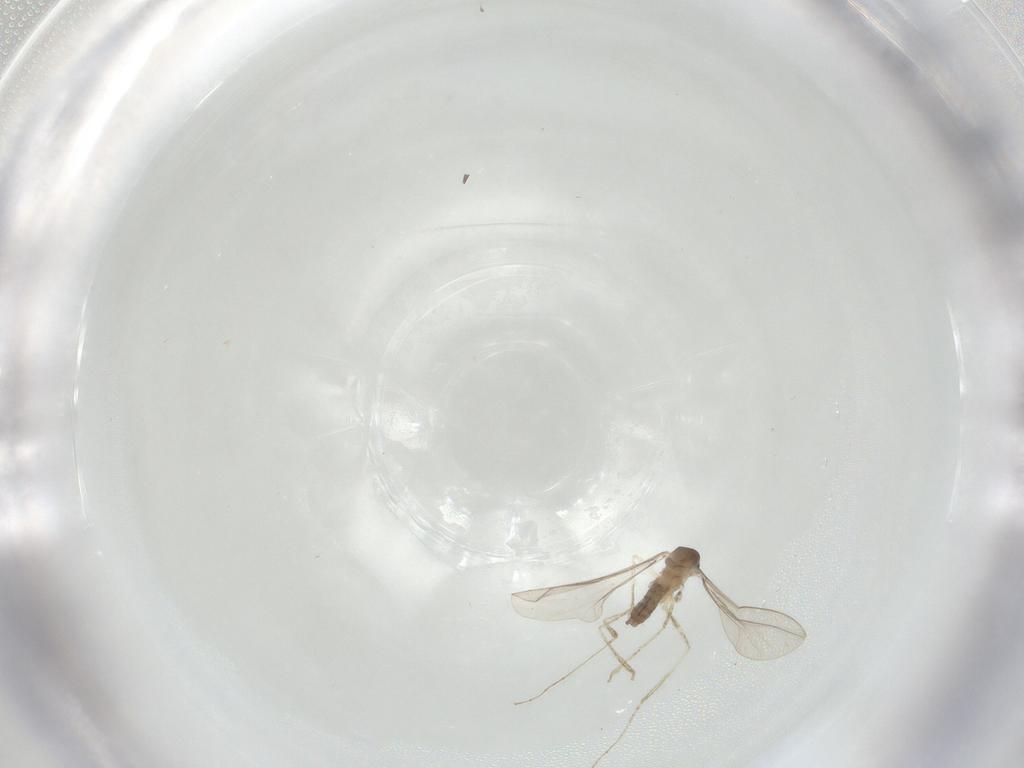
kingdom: Animalia
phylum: Arthropoda
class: Insecta
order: Diptera
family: Cecidomyiidae
